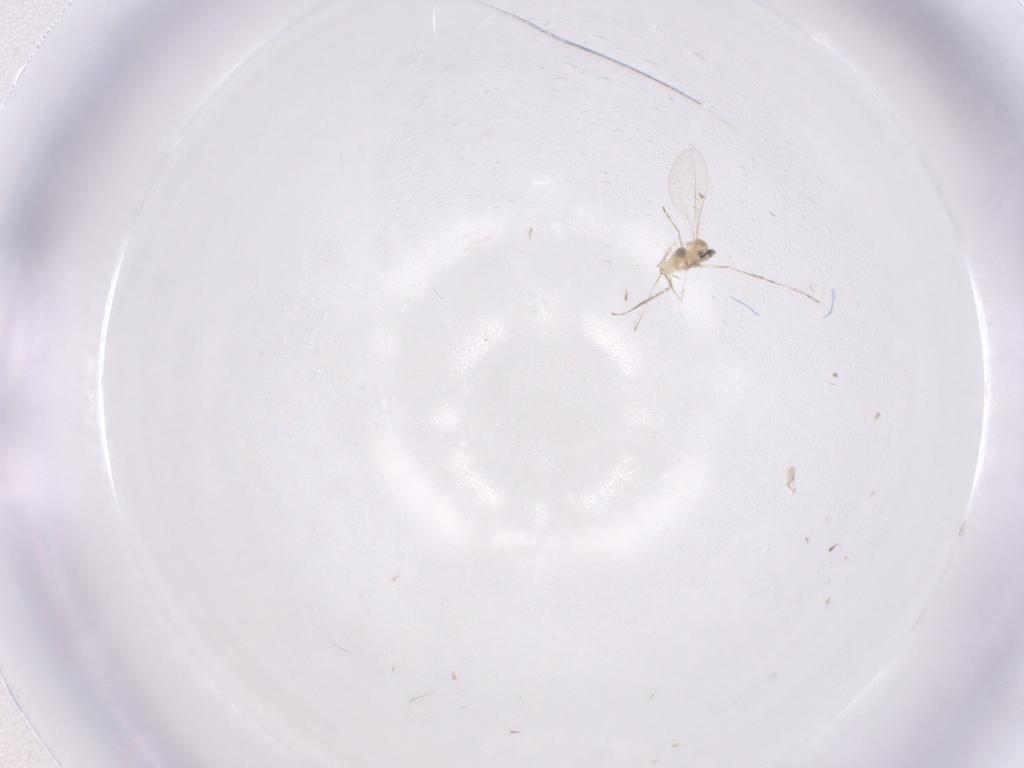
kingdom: Animalia
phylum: Arthropoda
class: Insecta
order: Diptera
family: Cecidomyiidae
